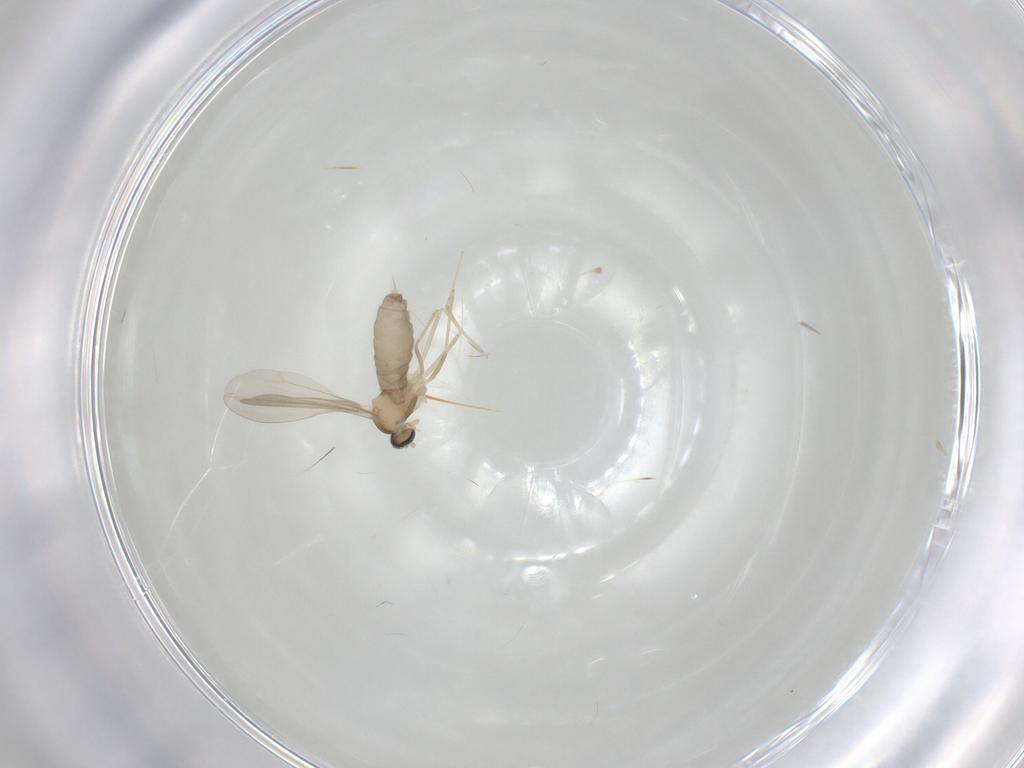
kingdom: Animalia
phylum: Arthropoda
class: Insecta
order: Diptera
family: Cecidomyiidae
